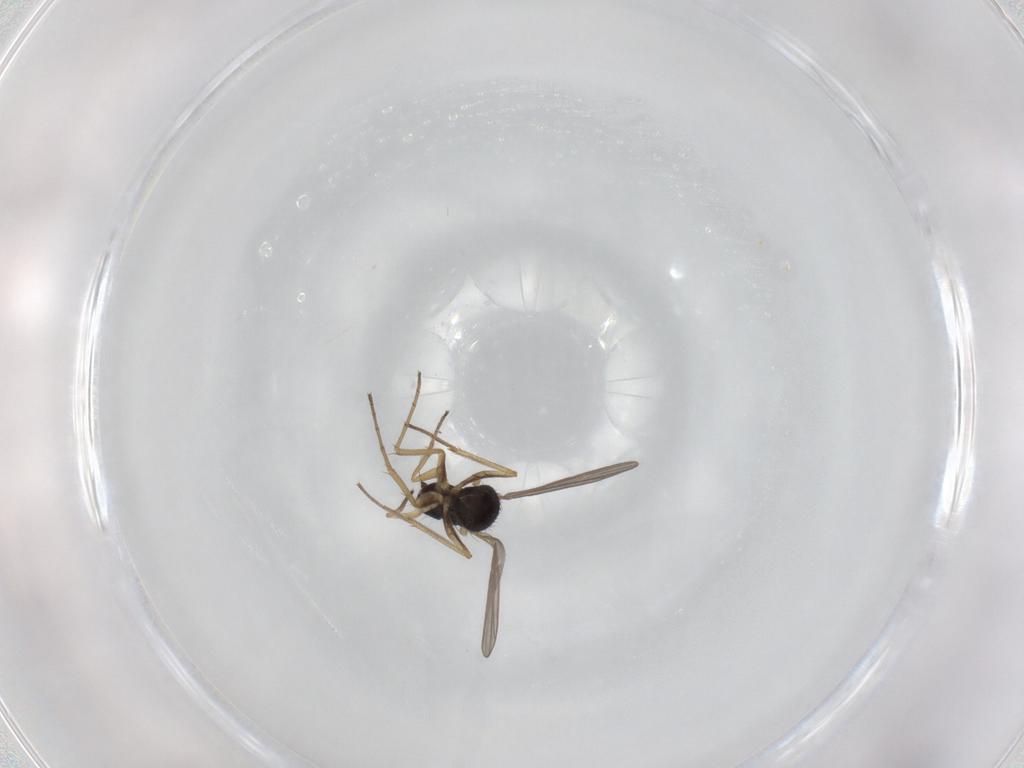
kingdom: Animalia
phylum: Arthropoda
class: Insecta
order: Diptera
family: Dolichopodidae
